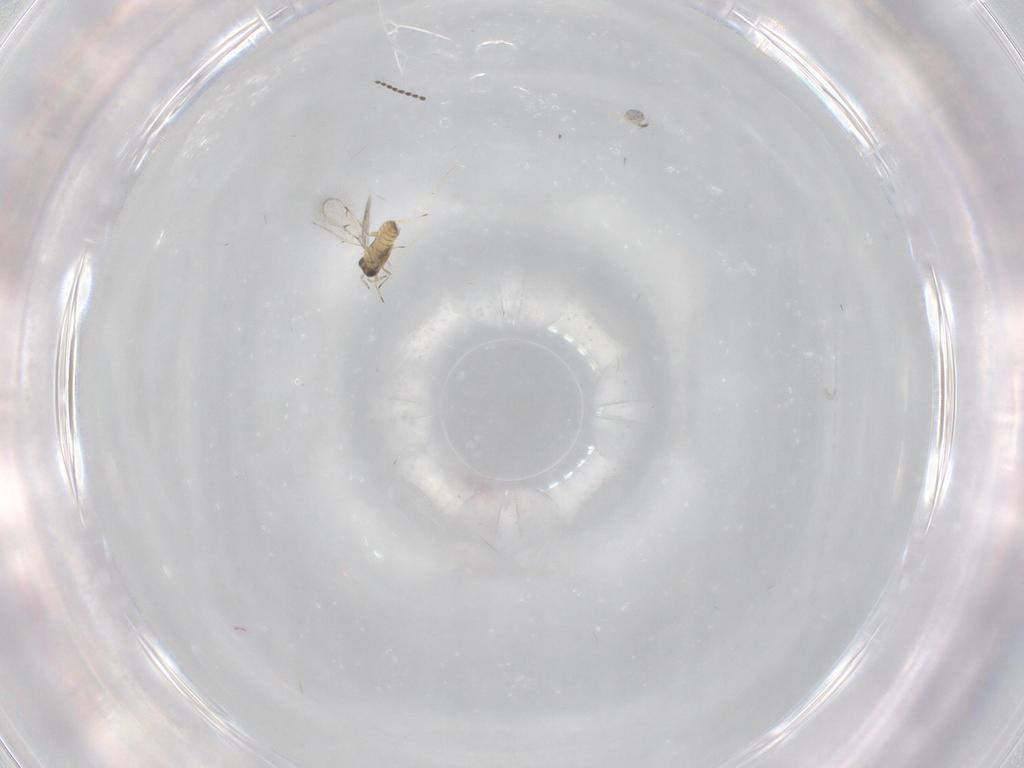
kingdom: Animalia
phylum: Arthropoda
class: Insecta
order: Hymenoptera
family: Trichogrammatidae
